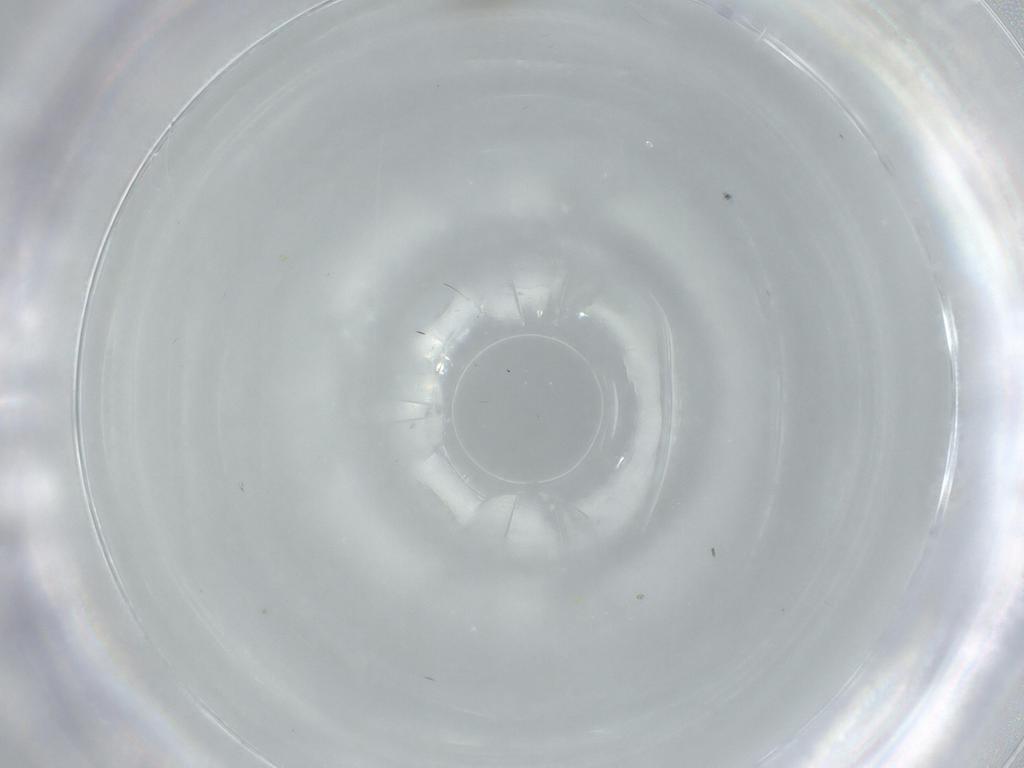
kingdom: Animalia
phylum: Arthropoda
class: Insecta
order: Diptera
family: Chironomidae
